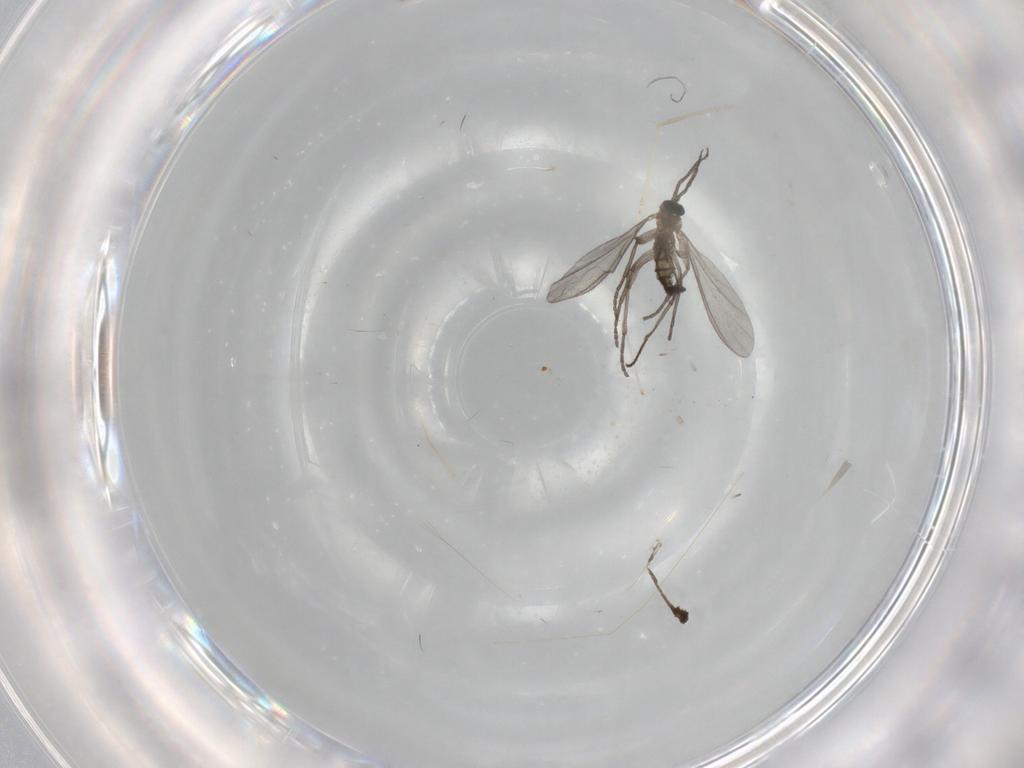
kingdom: Animalia
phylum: Arthropoda
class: Insecta
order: Diptera
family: Sciaridae
